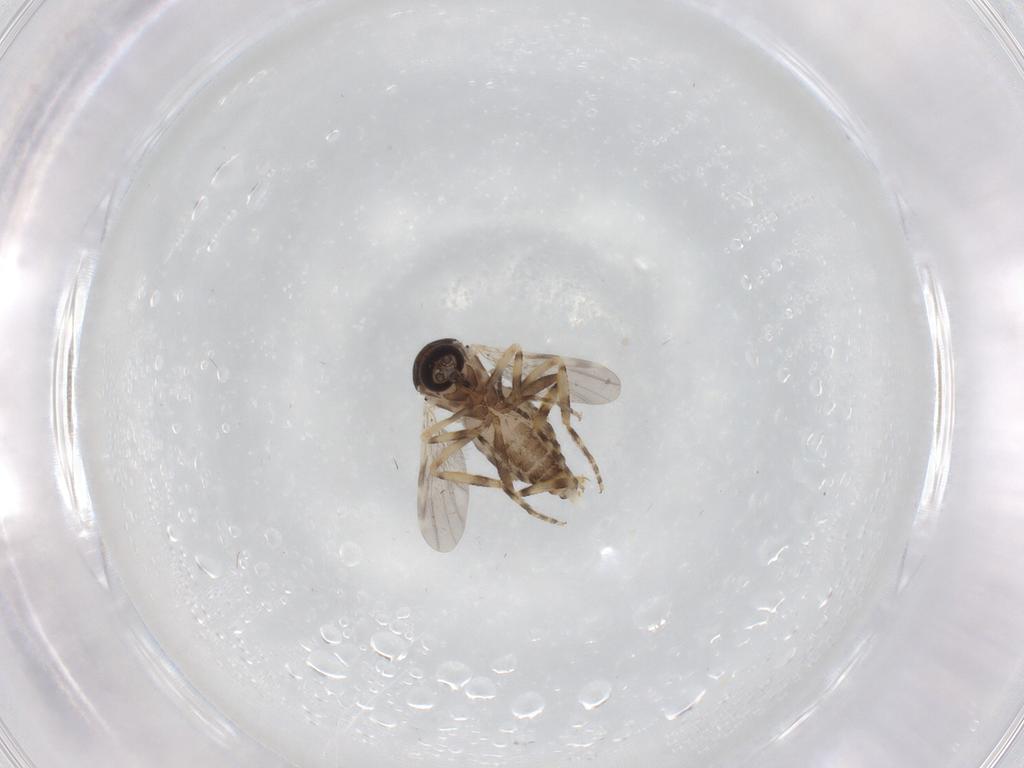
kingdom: Animalia
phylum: Arthropoda
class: Insecta
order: Diptera
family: Ceratopogonidae
